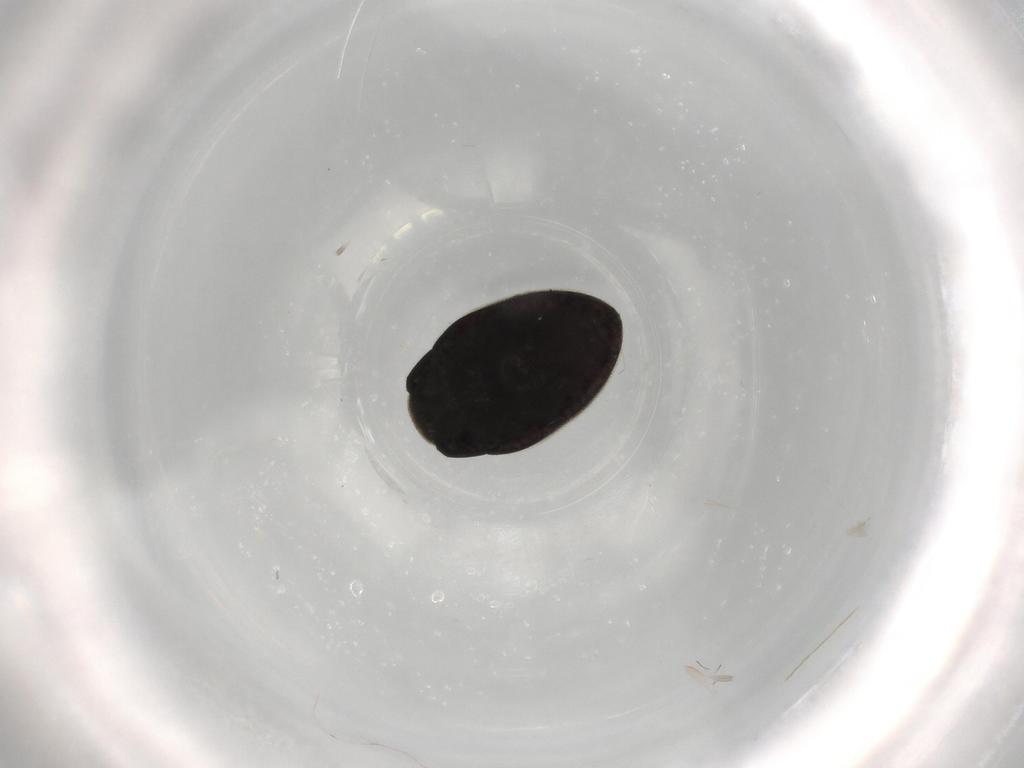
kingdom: Animalia
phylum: Arthropoda
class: Insecta
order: Coleoptera
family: Limnichidae
